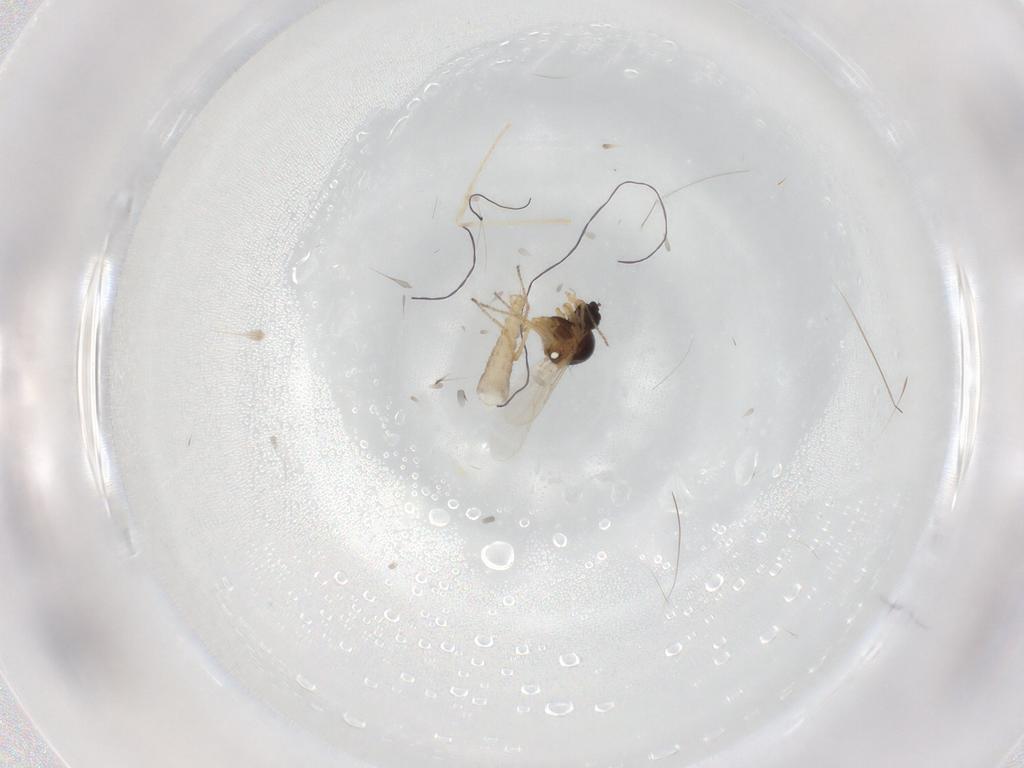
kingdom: Animalia
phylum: Arthropoda
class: Insecta
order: Diptera
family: Ceratopogonidae
